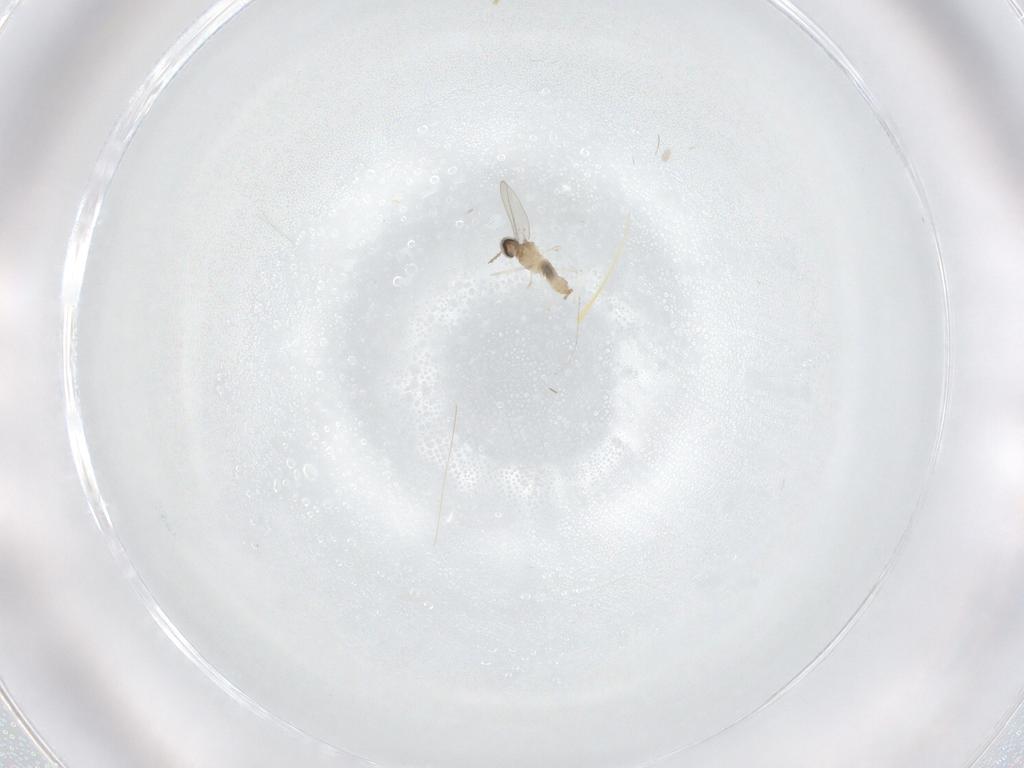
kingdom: Animalia
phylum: Arthropoda
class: Insecta
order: Diptera
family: Cecidomyiidae
